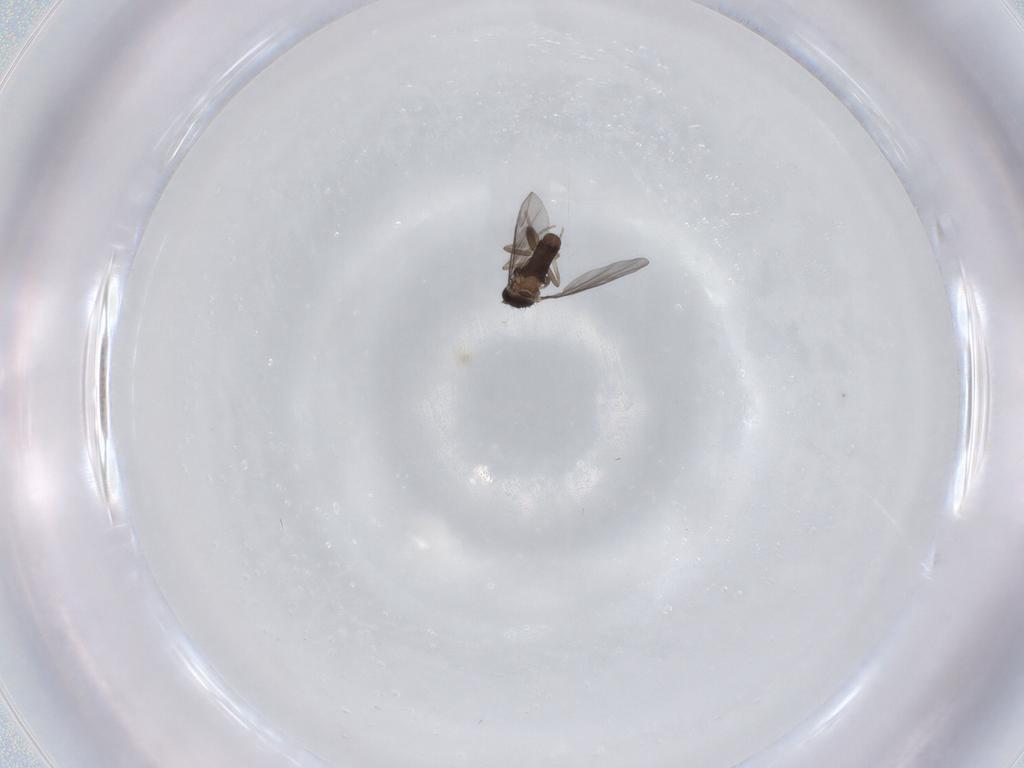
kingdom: Animalia
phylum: Arthropoda
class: Insecta
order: Diptera
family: Phoridae
